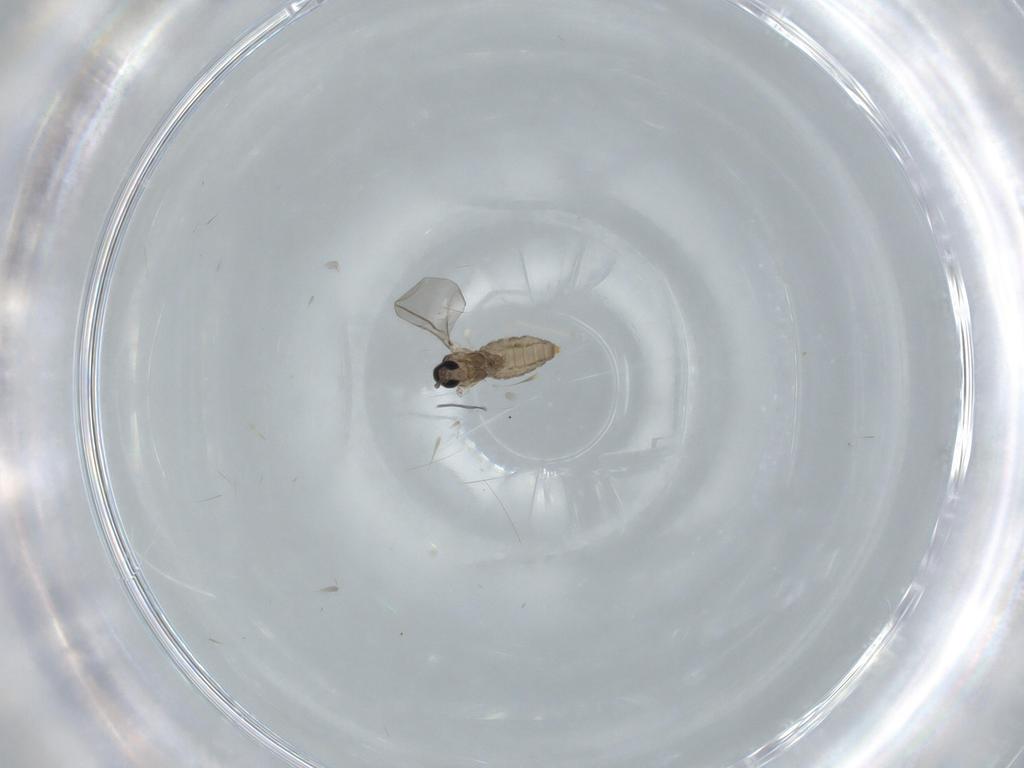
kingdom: Animalia
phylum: Arthropoda
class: Insecta
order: Diptera
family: Cecidomyiidae
